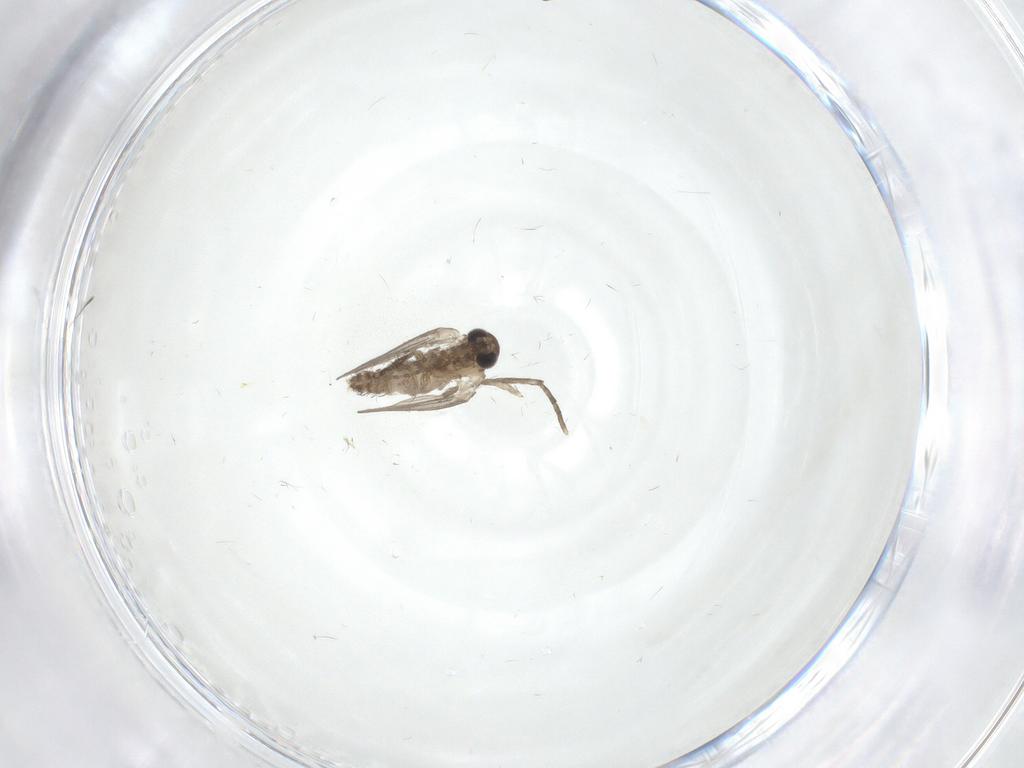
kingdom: Animalia
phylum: Arthropoda
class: Insecta
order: Diptera
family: Psychodidae
